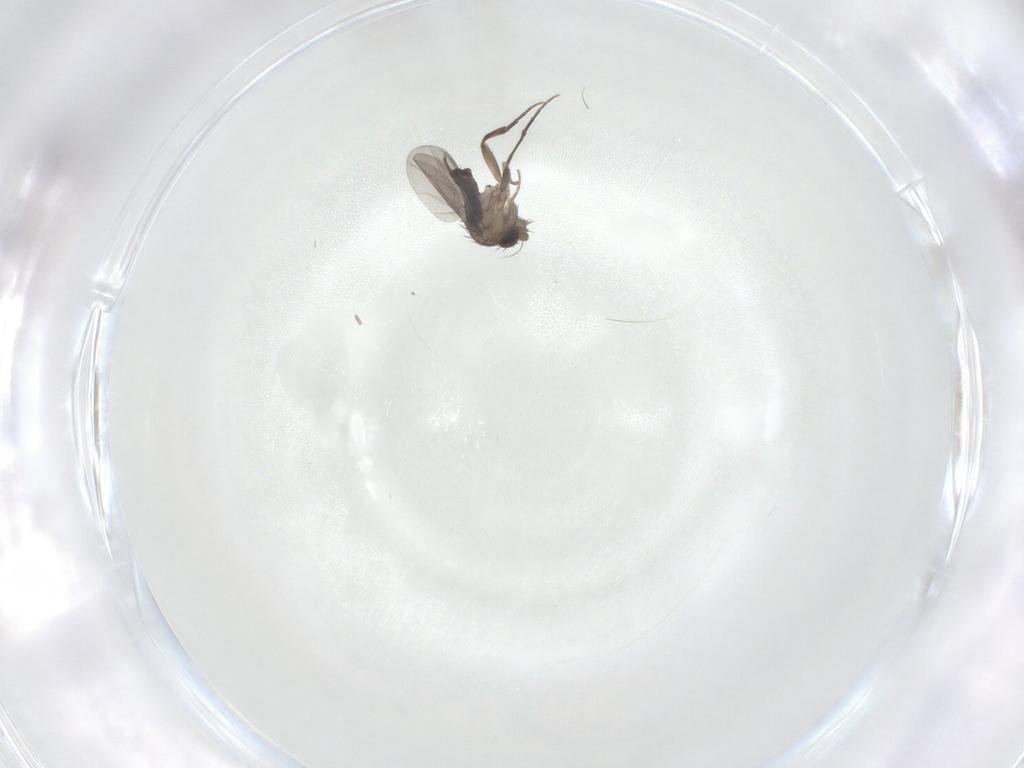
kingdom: Animalia
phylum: Arthropoda
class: Insecta
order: Diptera
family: Phoridae
